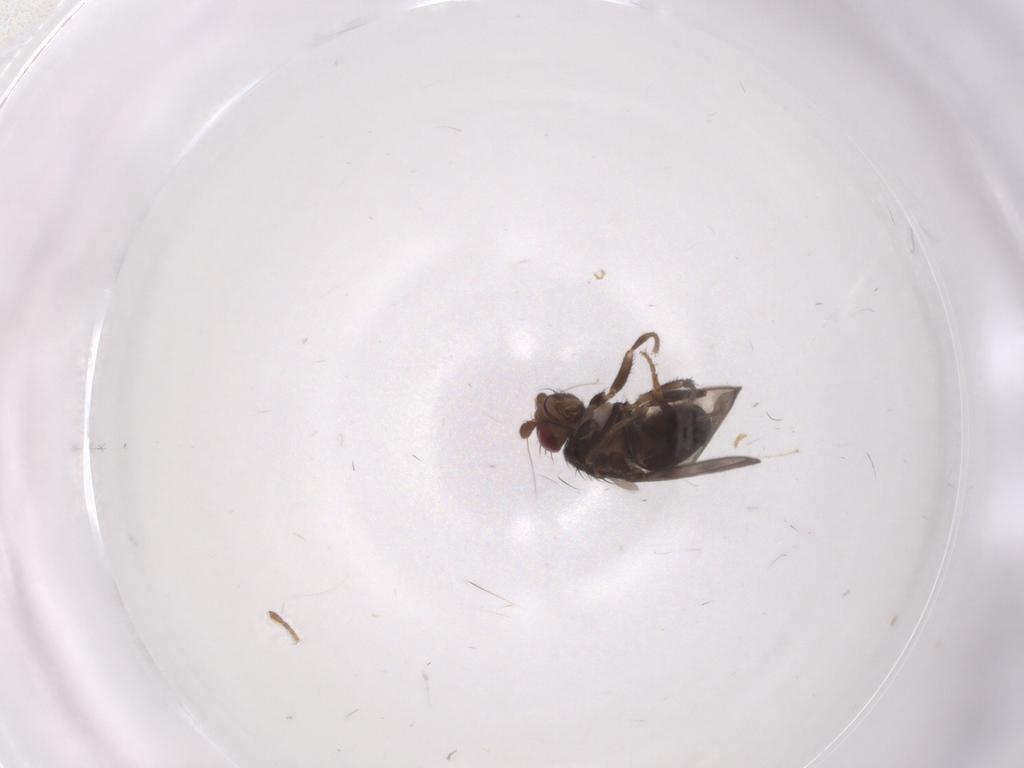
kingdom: Animalia
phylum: Arthropoda
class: Insecta
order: Diptera
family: Sphaeroceridae
